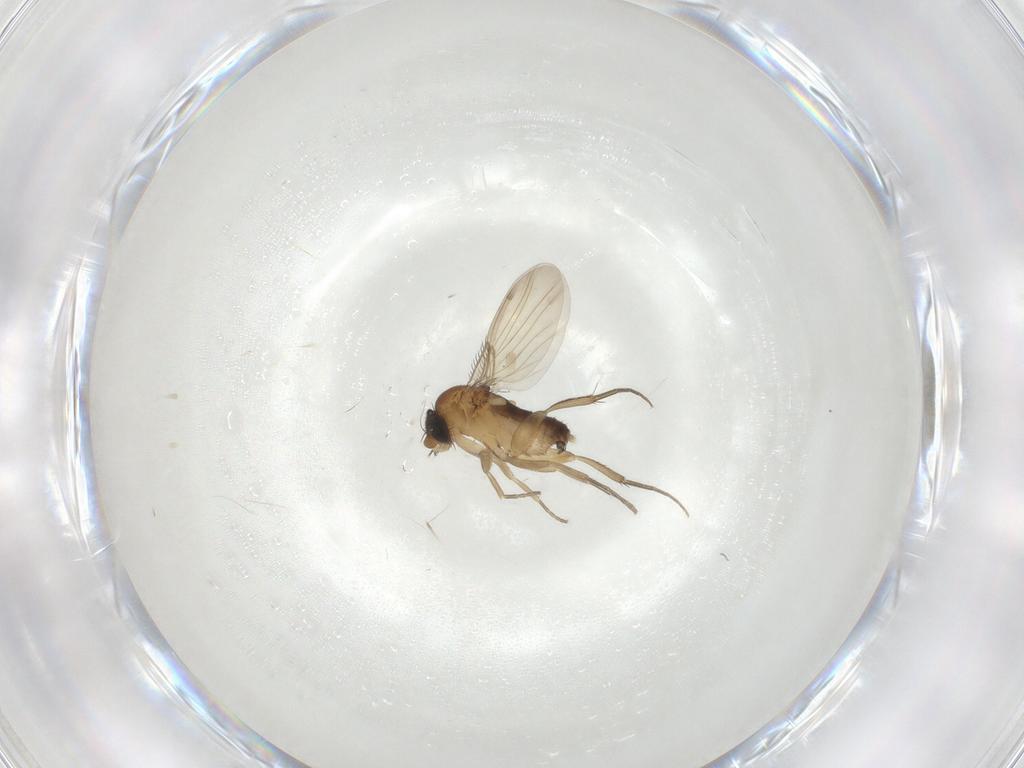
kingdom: Animalia
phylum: Arthropoda
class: Insecta
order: Diptera
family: Phoridae
